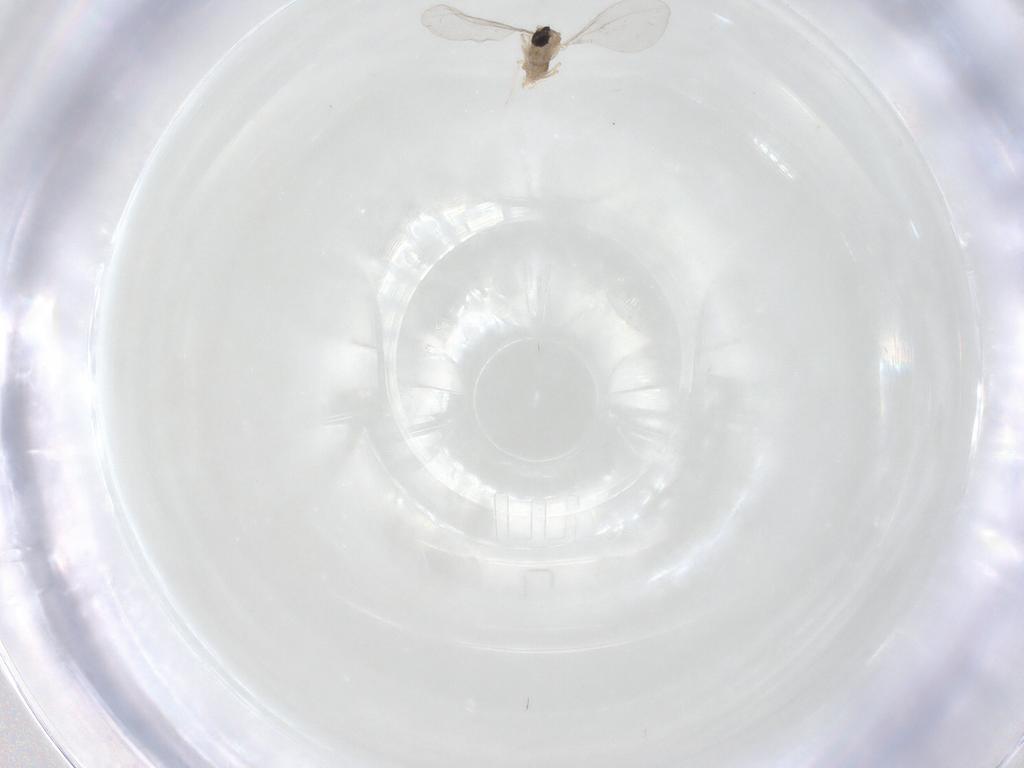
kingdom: Animalia
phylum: Arthropoda
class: Insecta
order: Diptera
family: Cecidomyiidae
